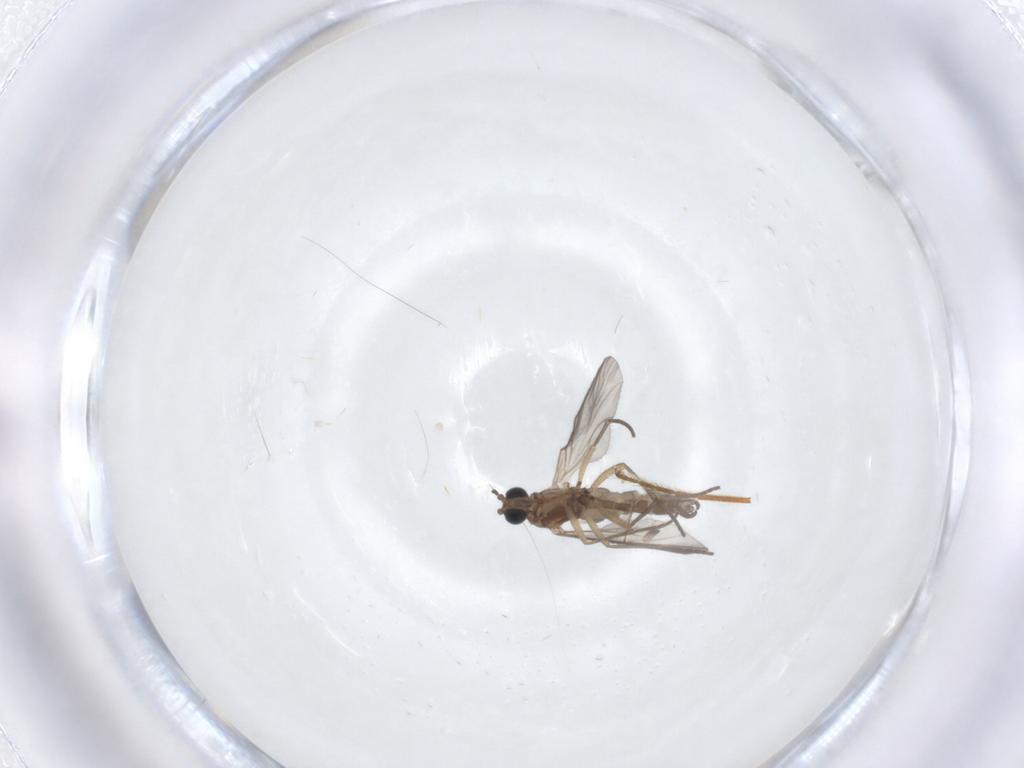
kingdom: Animalia
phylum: Arthropoda
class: Insecta
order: Diptera
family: Sciaridae
